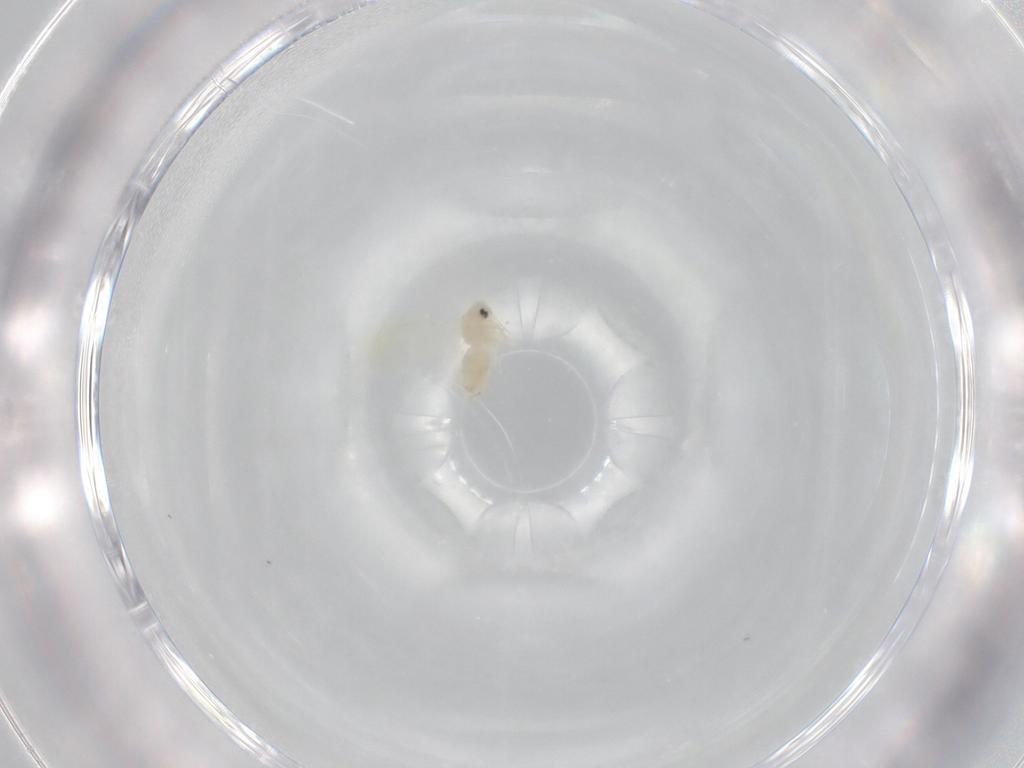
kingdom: Animalia
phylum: Arthropoda
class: Insecta
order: Hemiptera
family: Aleyrodidae
